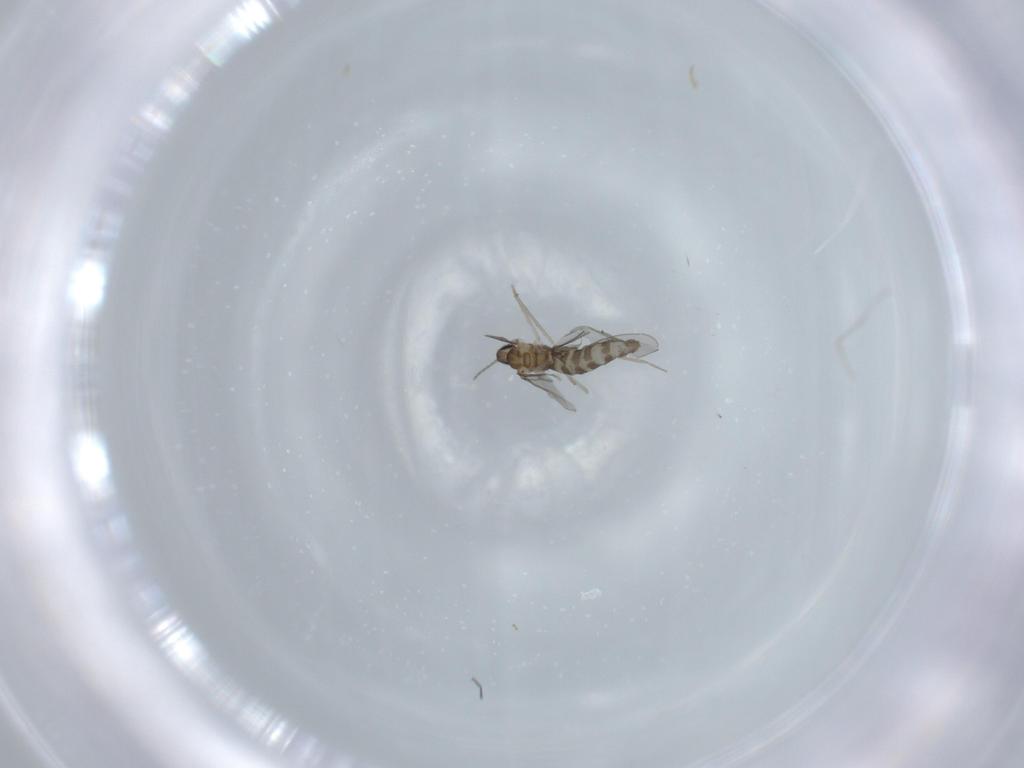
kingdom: Animalia
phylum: Arthropoda
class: Insecta
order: Diptera
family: Cecidomyiidae
